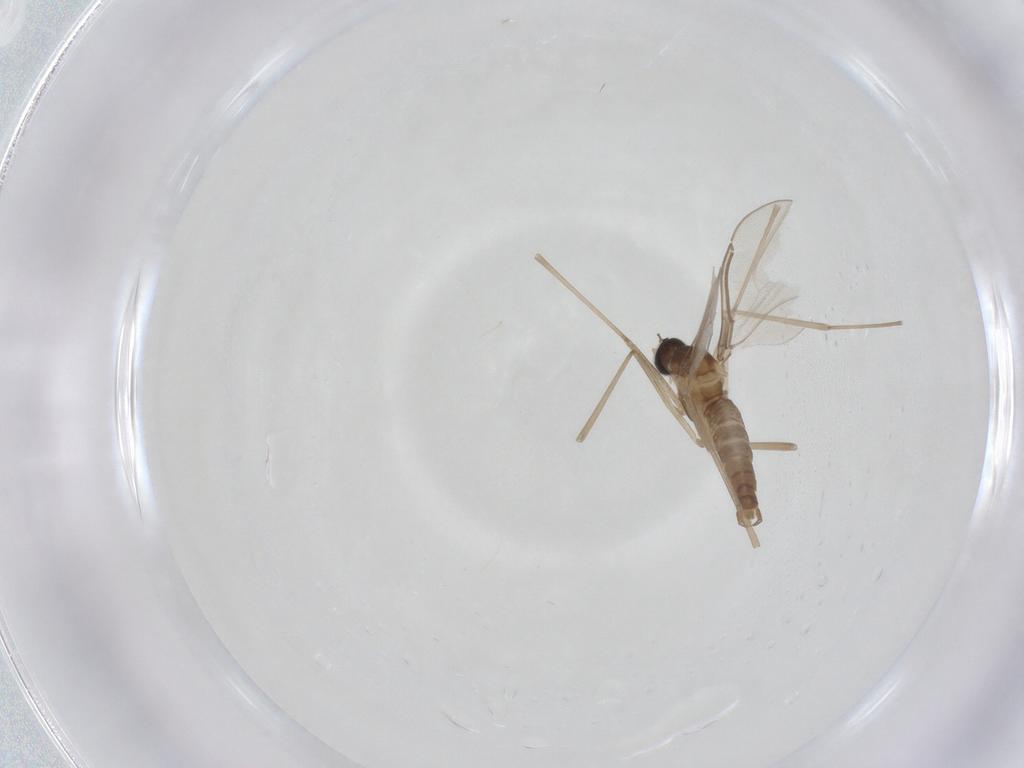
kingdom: Animalia
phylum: Arthropoda
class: Insecta
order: Diptera
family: Cecidomyiidae
